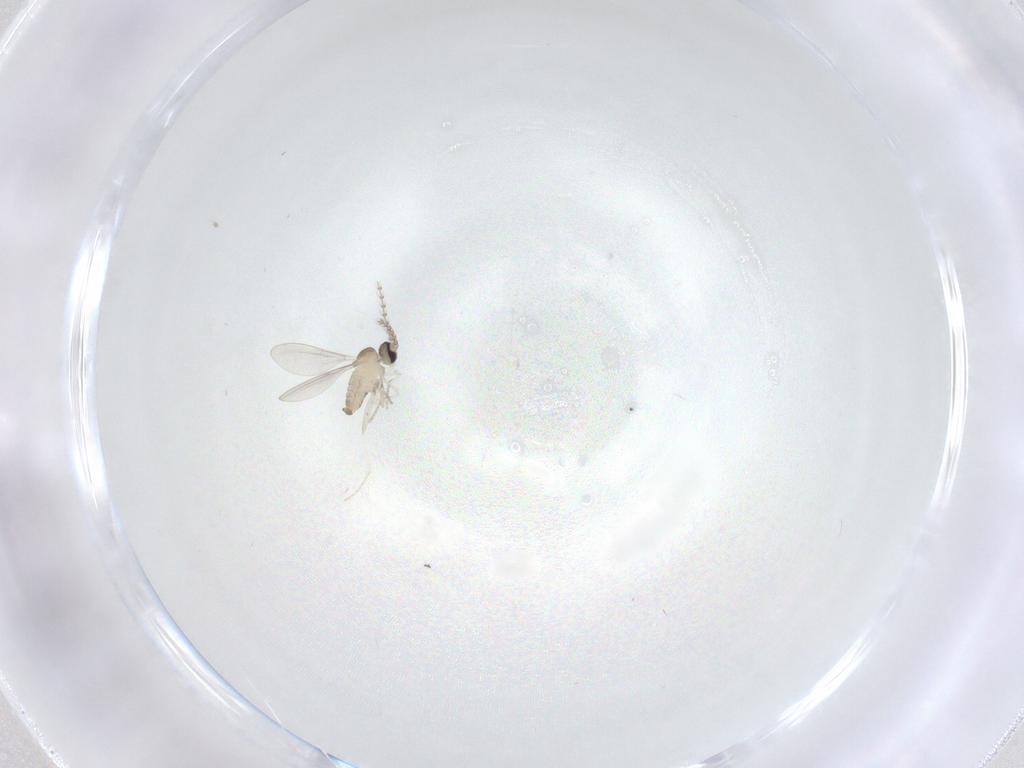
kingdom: Animalia
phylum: Arthropoda
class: Insecta
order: Diptera
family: Cecidomyiidae
